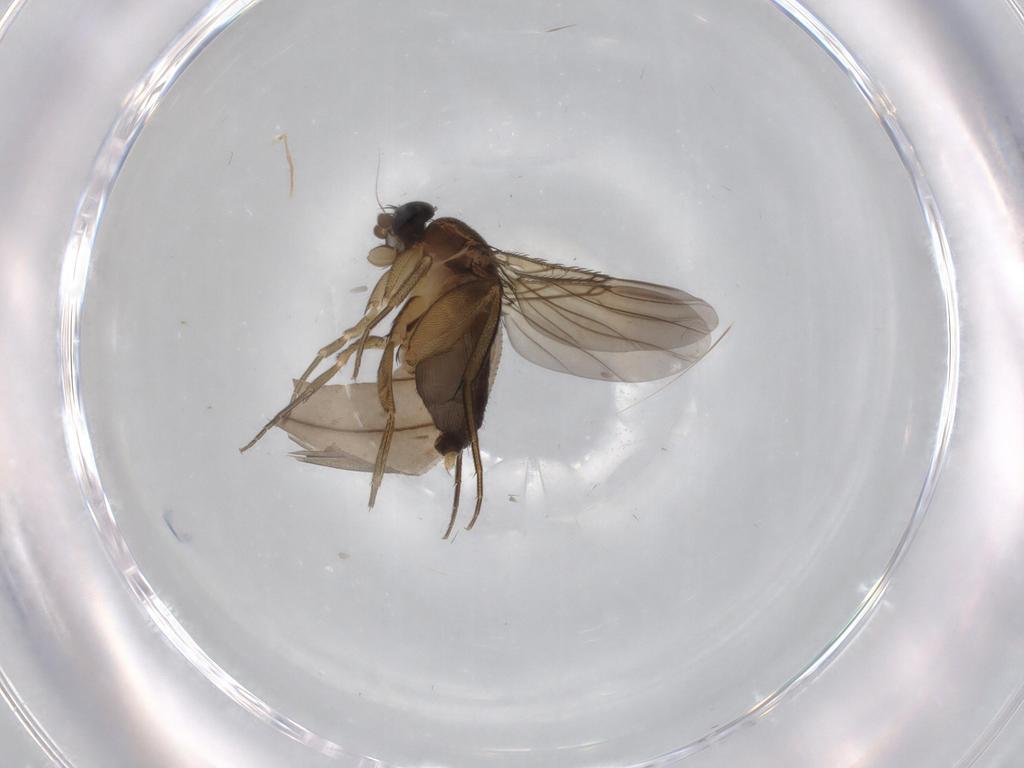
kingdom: Animalia
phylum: Arthropoda
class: Insecta
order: Diptera
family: Phoridae
